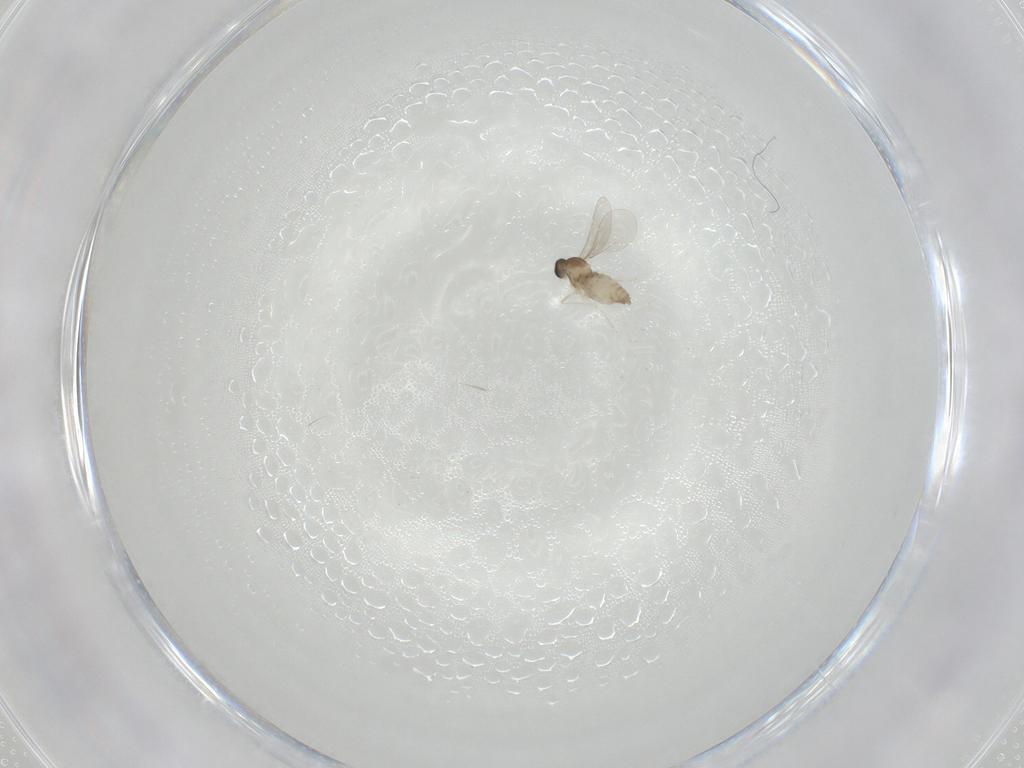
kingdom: Animalia
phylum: Arthropoda
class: Insecta
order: Diptera
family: Cecidomyiidae
